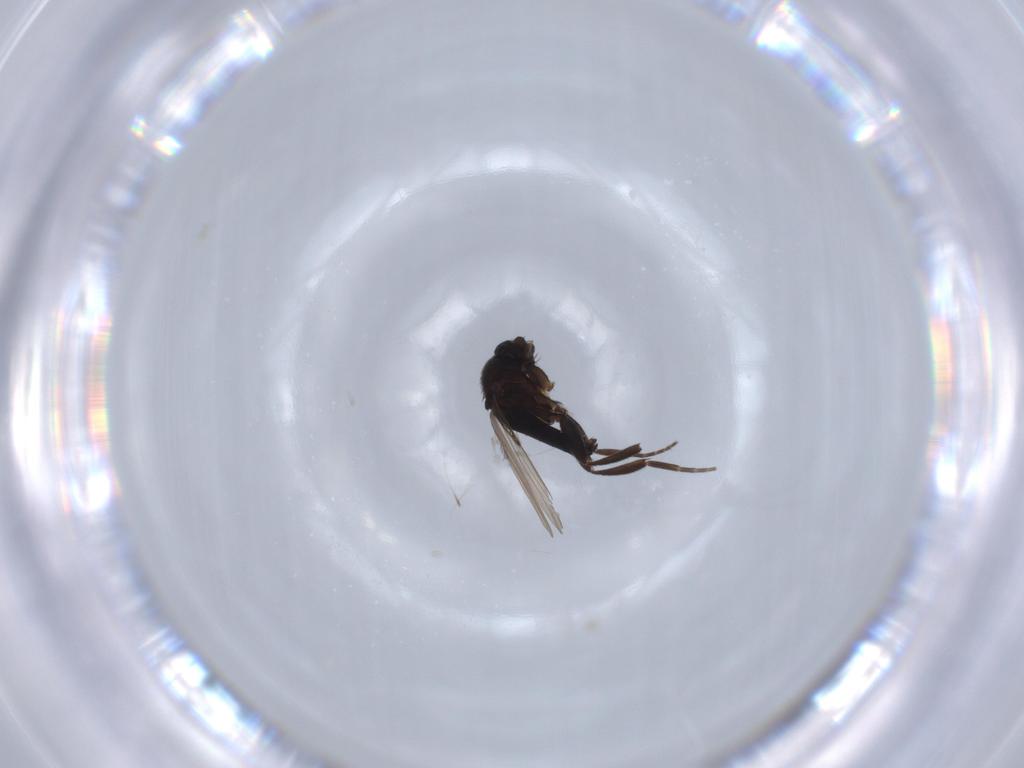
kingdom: Animalia
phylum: Arthropoda
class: Insecta
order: Diptera
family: Phoridae
